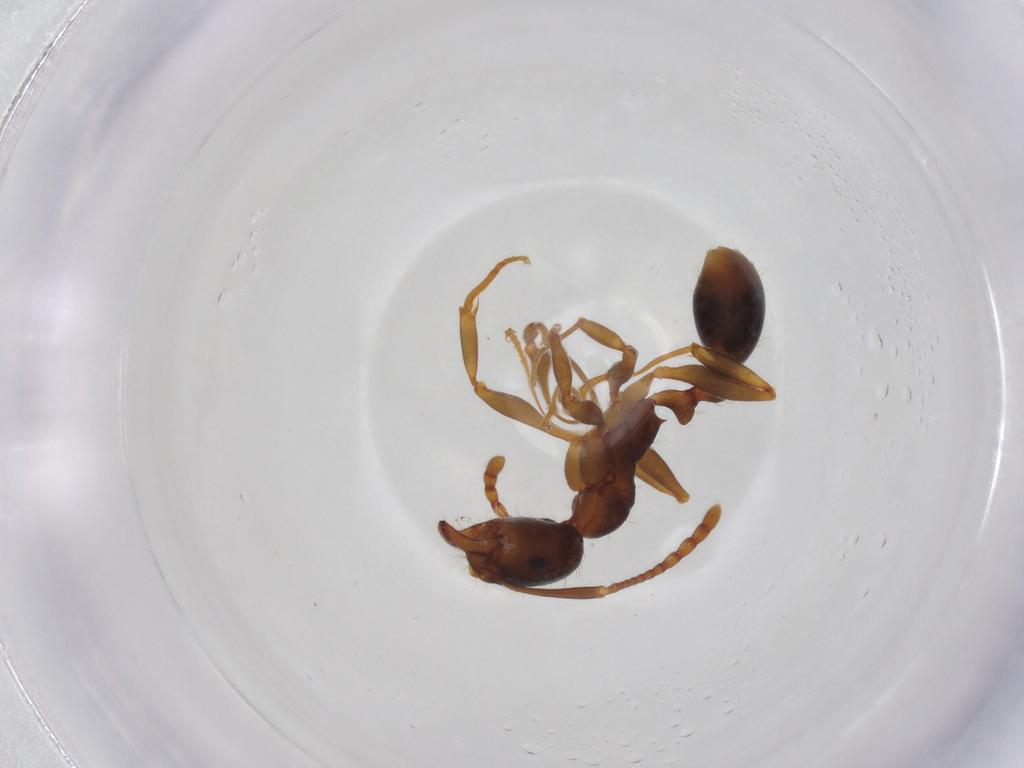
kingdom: Animalia
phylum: Arthropoda
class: Insecta
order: Hymenoptera
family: Formicidae
